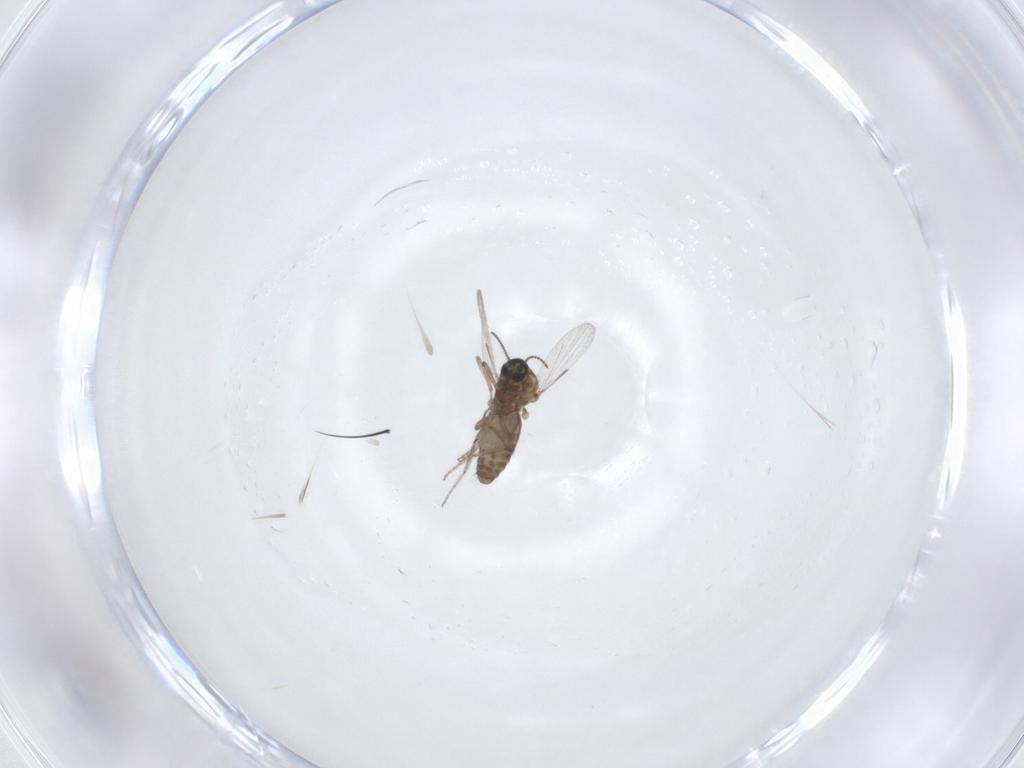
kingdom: Animalia
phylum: Arthropoda
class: Insecta
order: Diptera
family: Ceratopogonidae
